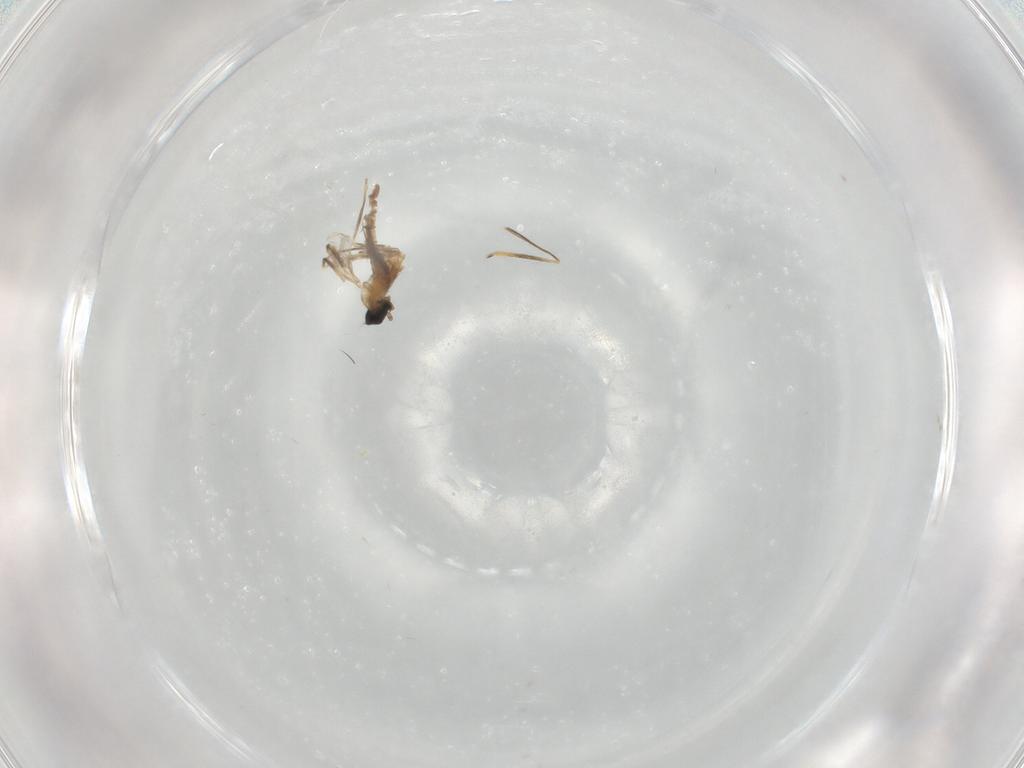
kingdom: Animalia
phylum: Arthropoda
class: Insecta
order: Diptera
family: Cecidomyiidae
